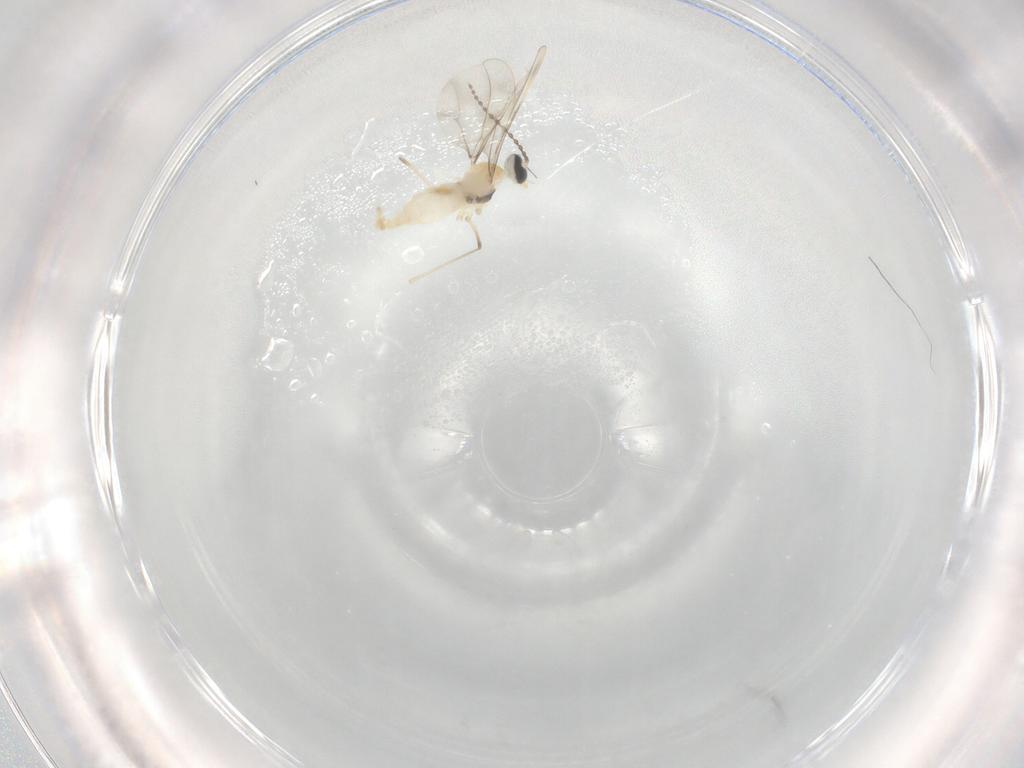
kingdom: Animalia
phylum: Arthropoda
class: Insecta
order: Diptera
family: Cecidomyiidae
